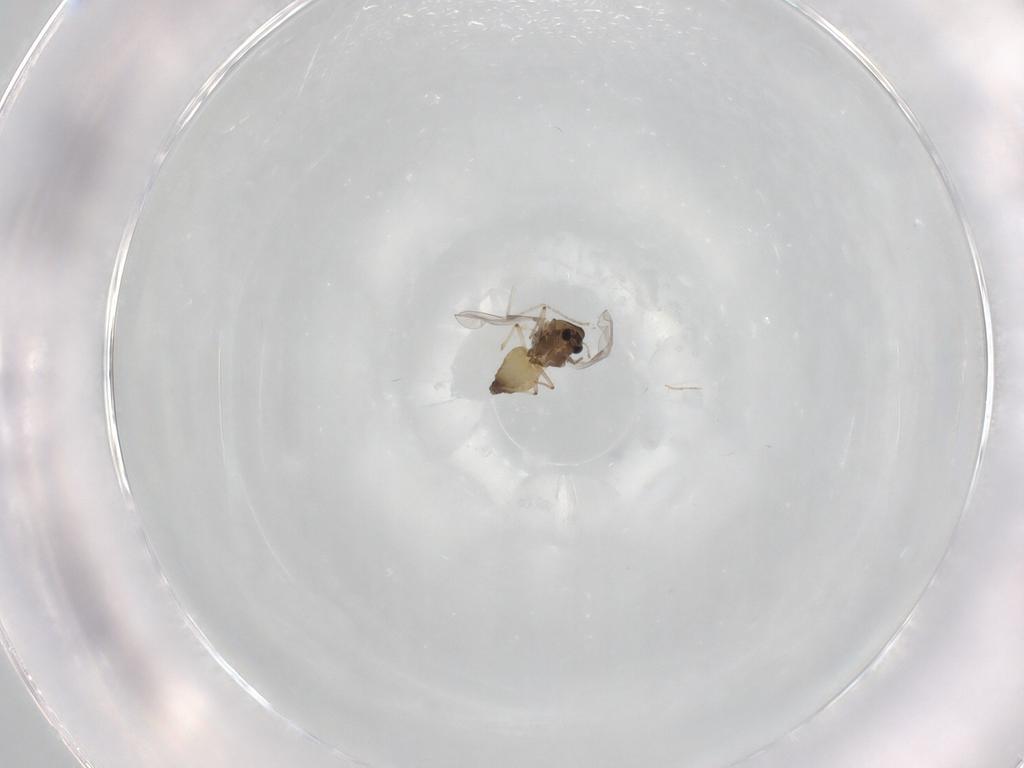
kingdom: Animalia
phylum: Arthropoda
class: Insecta
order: Diptera
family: Chironomidae
